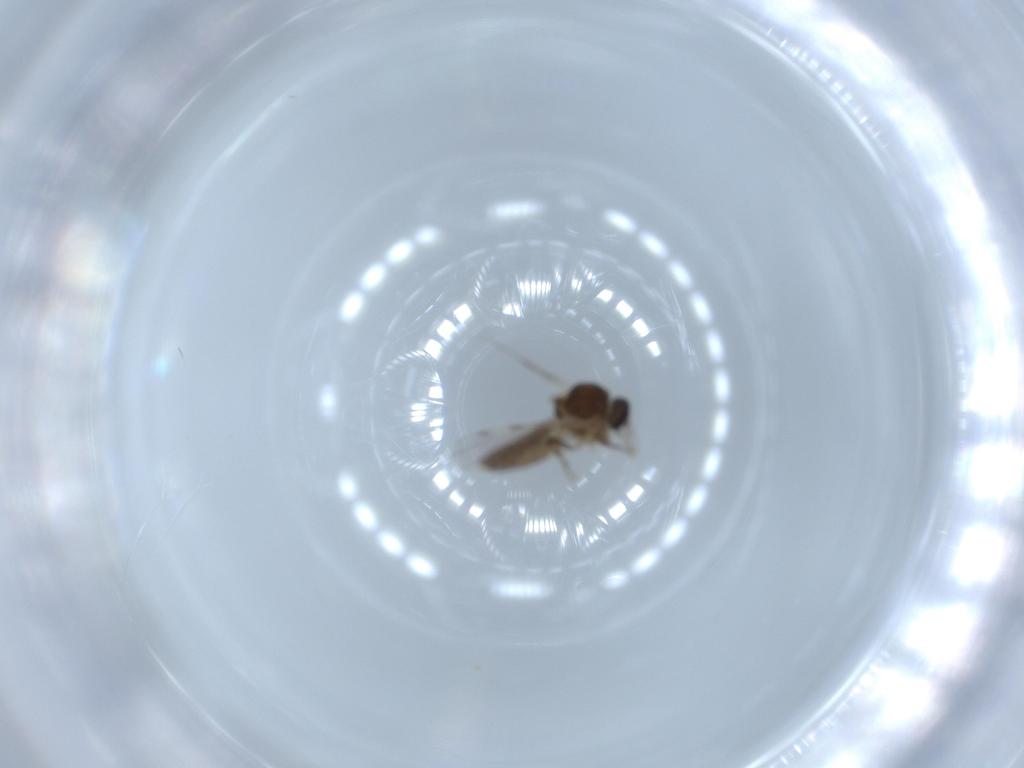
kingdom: Animalia
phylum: Arthropoda
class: Insecta
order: Diptera
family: Ceratopogonidae
